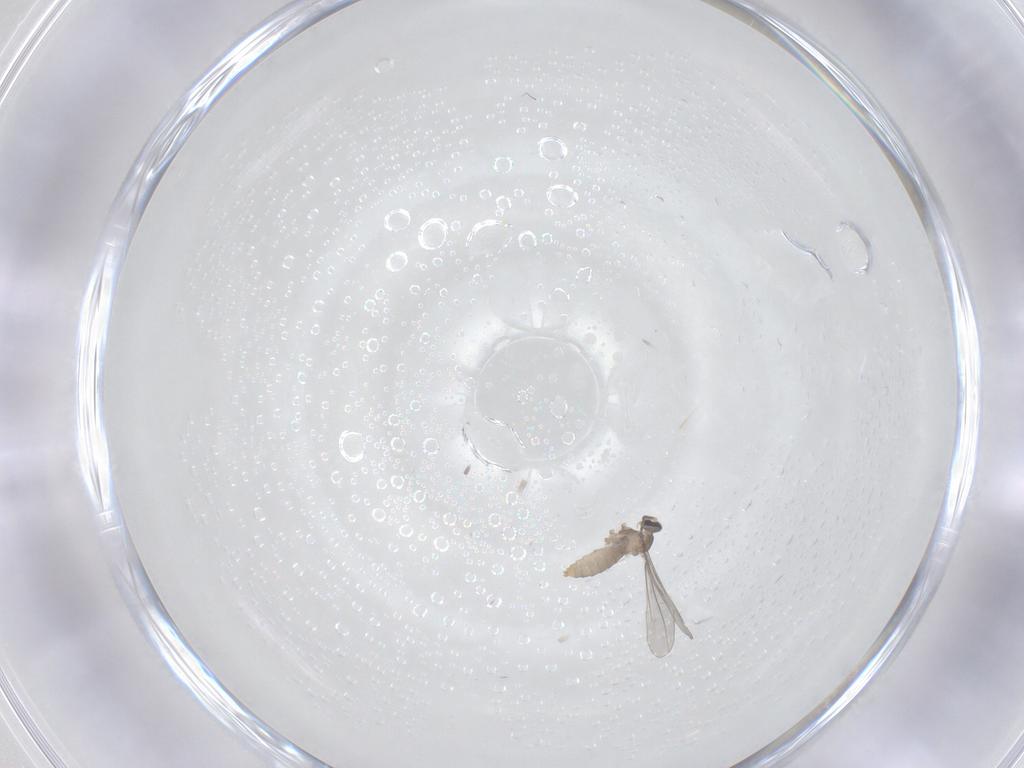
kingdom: Animalia
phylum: Arthropoda
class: Insecta
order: Diptera
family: Cecidomyiidae
